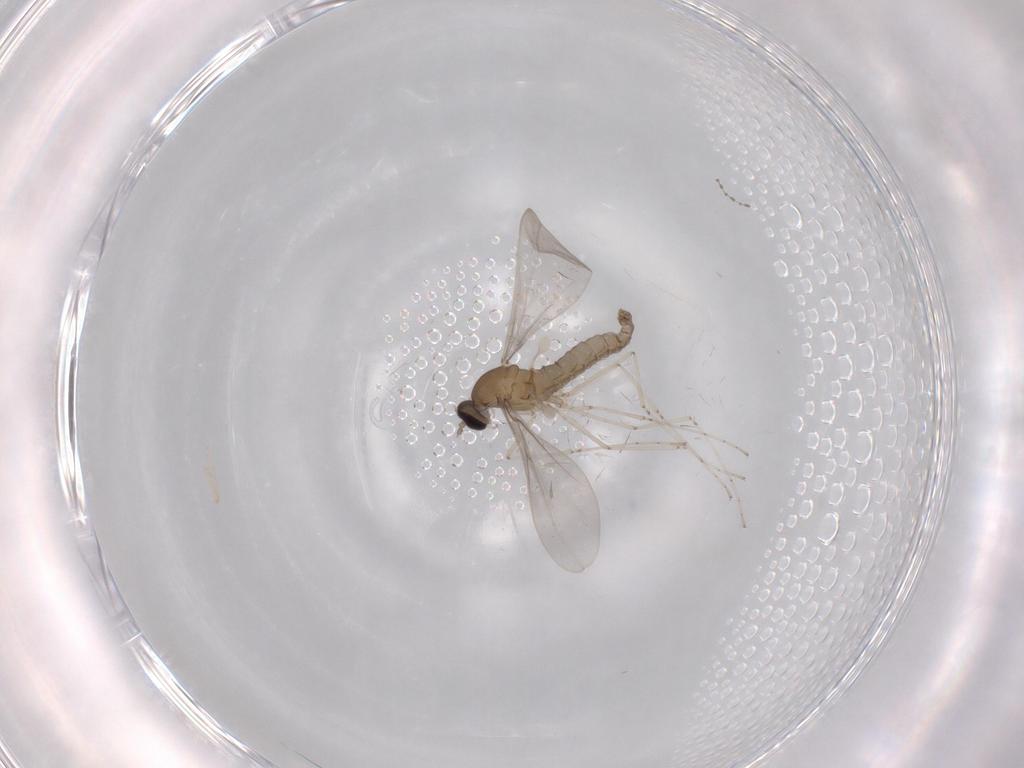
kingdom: Animalia
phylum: Arthropoda
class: Insecta
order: Diptera
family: Cecidomyiidae
